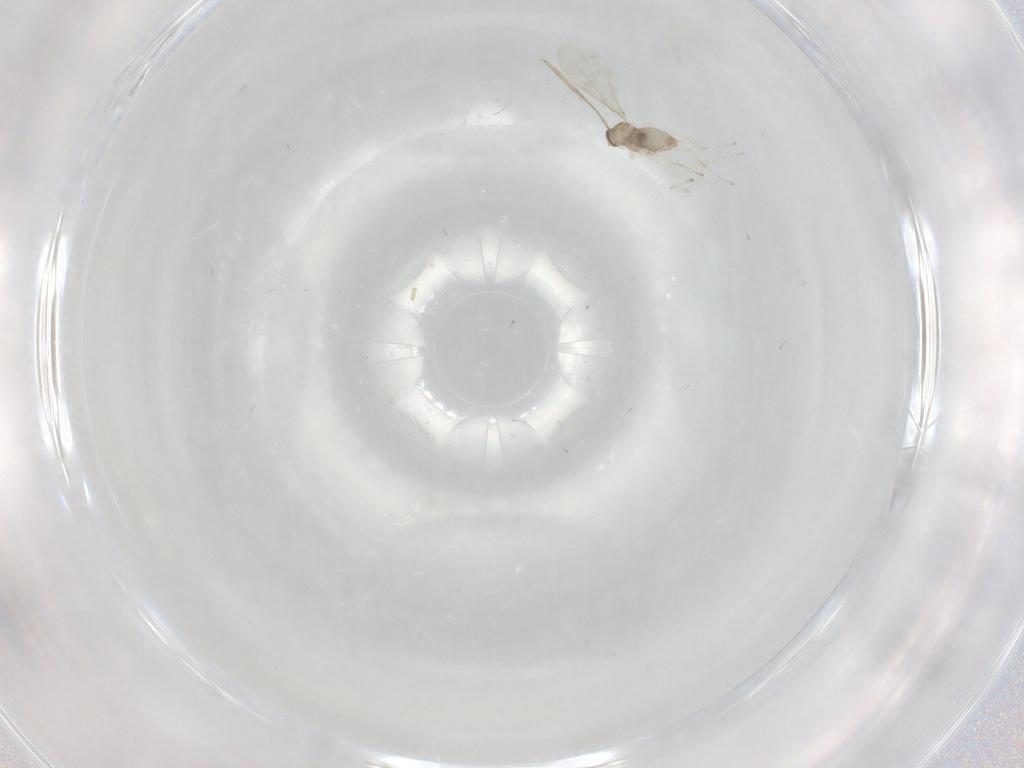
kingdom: Animalia
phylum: Arthropoda
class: Insecta
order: Diptera
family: Cecidomyiidae
